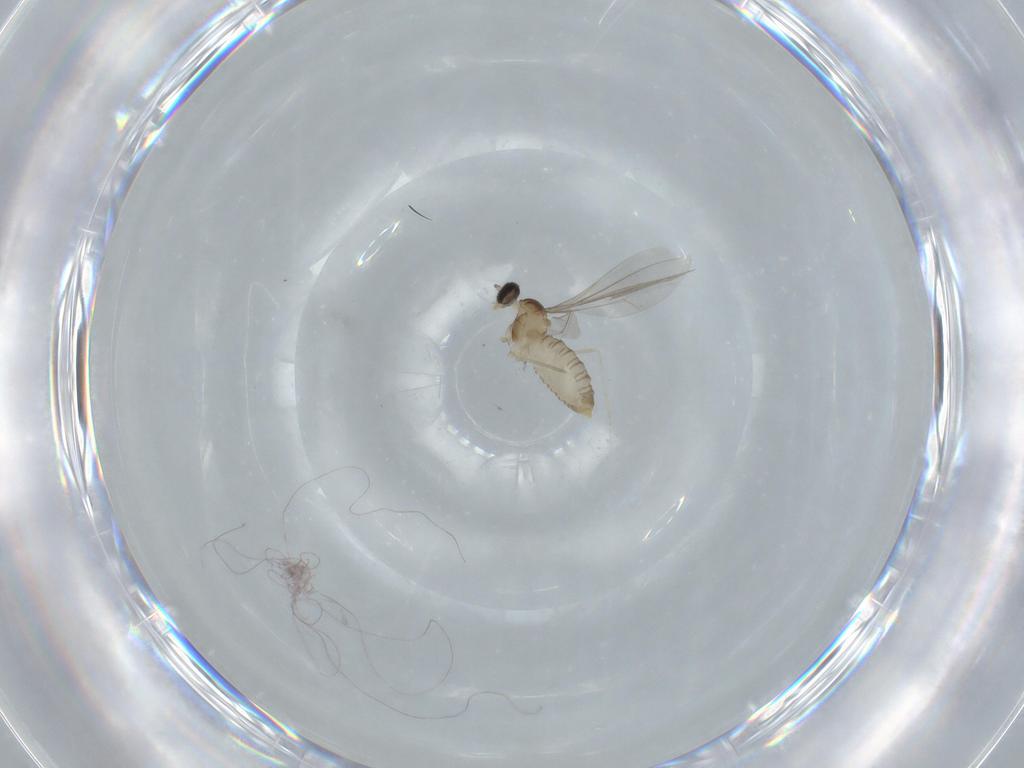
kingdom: Animalia
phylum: Arthropoda
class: Insecta
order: Diptera
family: Cecidomyiidae
